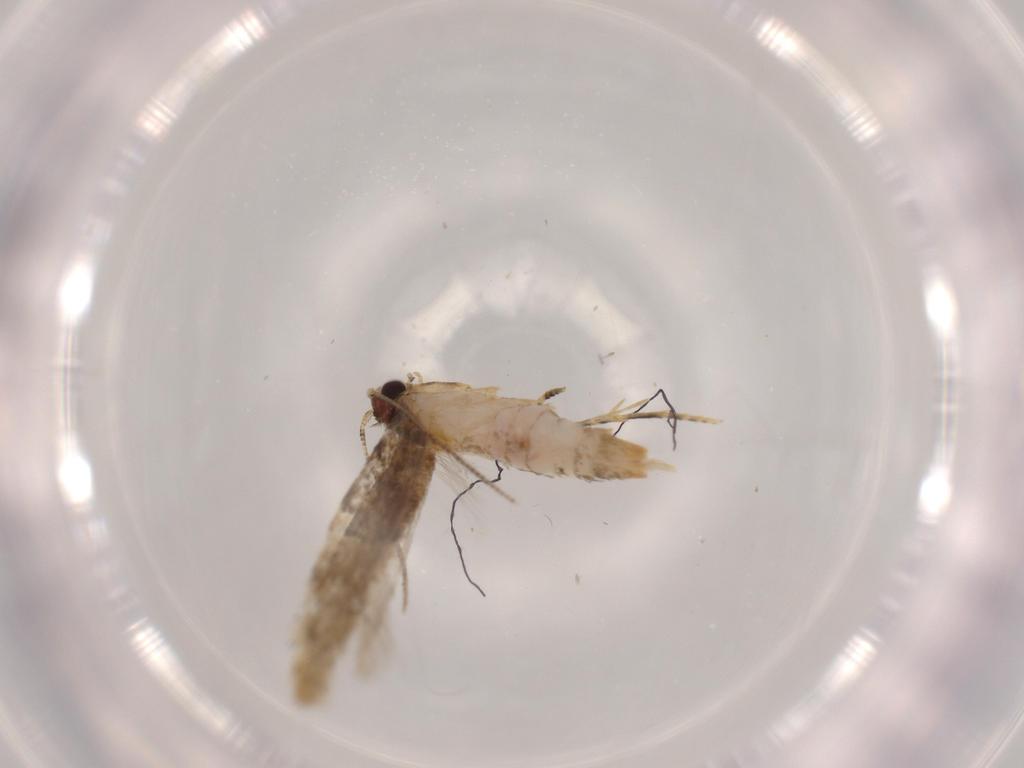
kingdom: Animalia
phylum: Arthropoda
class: Insecta
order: Lepidoptera
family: Tineidae
